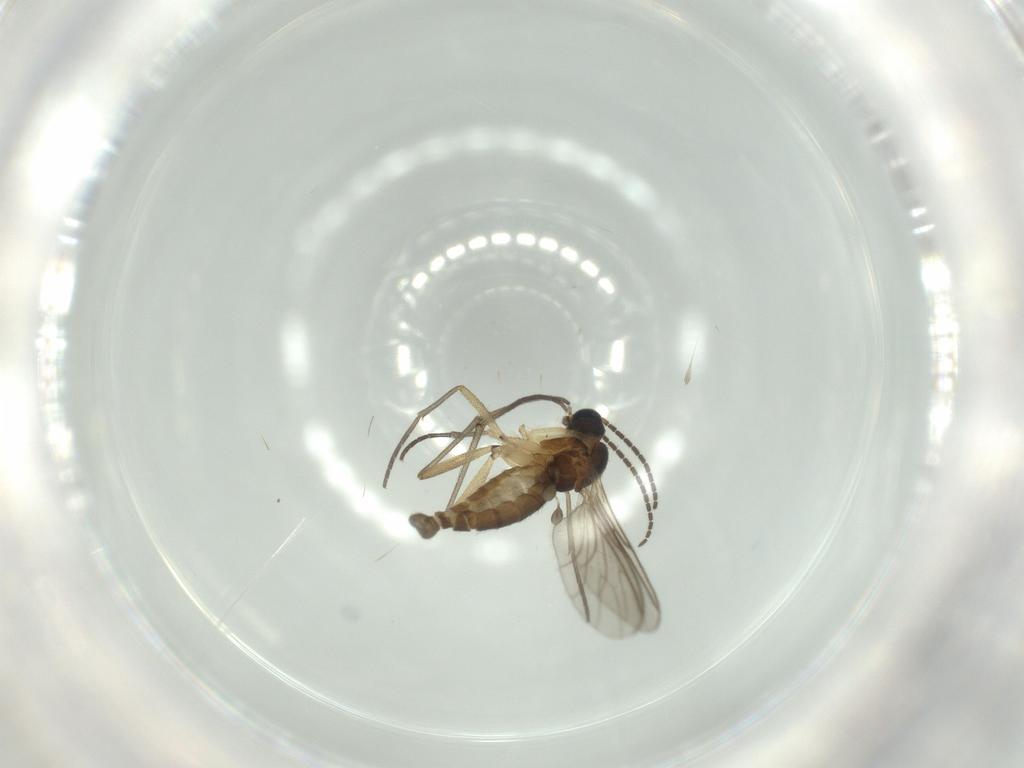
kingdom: Animalia
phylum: Arthropoda
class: Insecta
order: Diptera
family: Sciaridae
